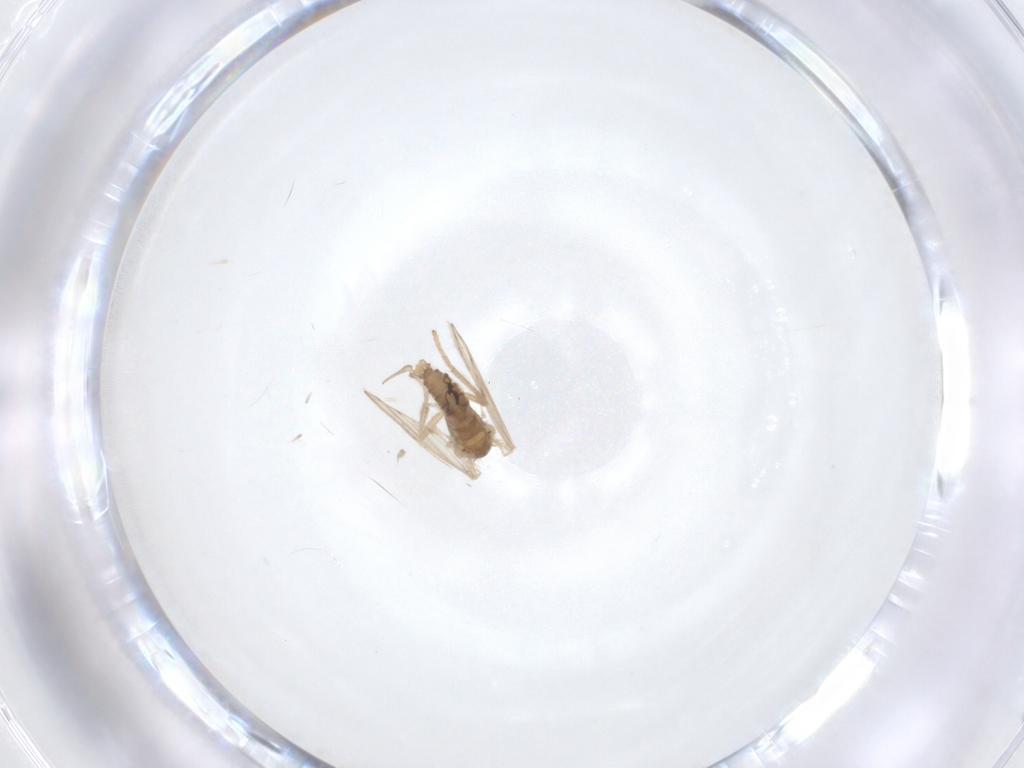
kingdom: Animalia
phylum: Arthropoda
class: Insecta
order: Diptera
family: Psychodidae
